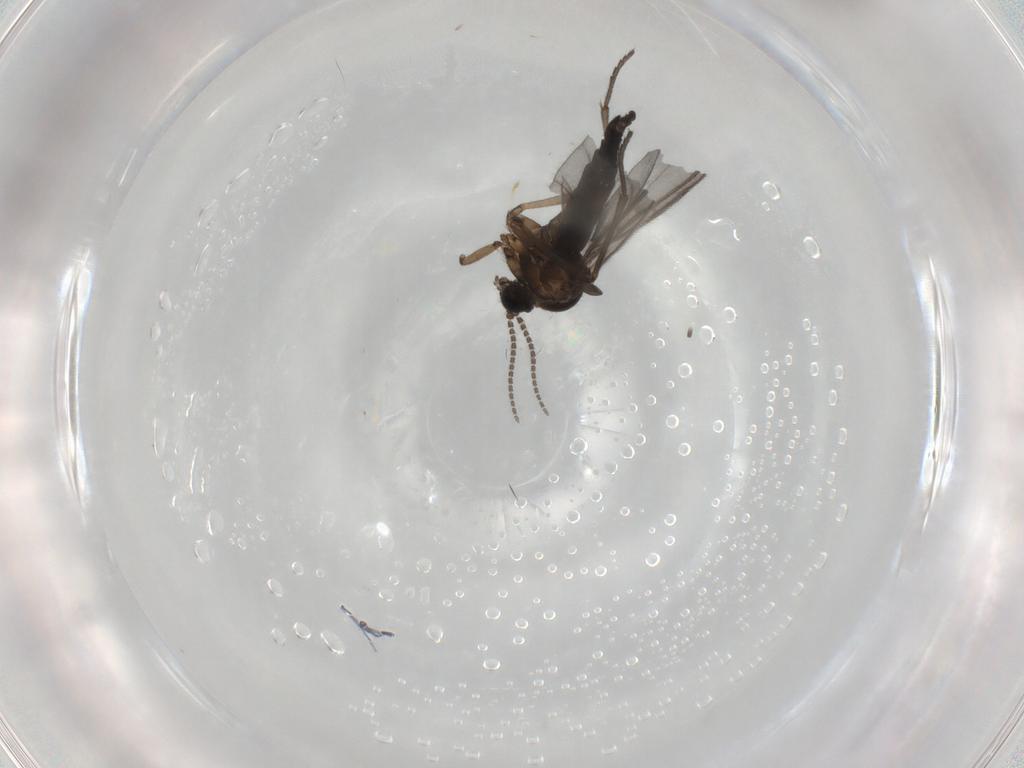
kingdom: Animalia
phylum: Arthropoda
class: Insecta
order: Diptera
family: Sciaridae
